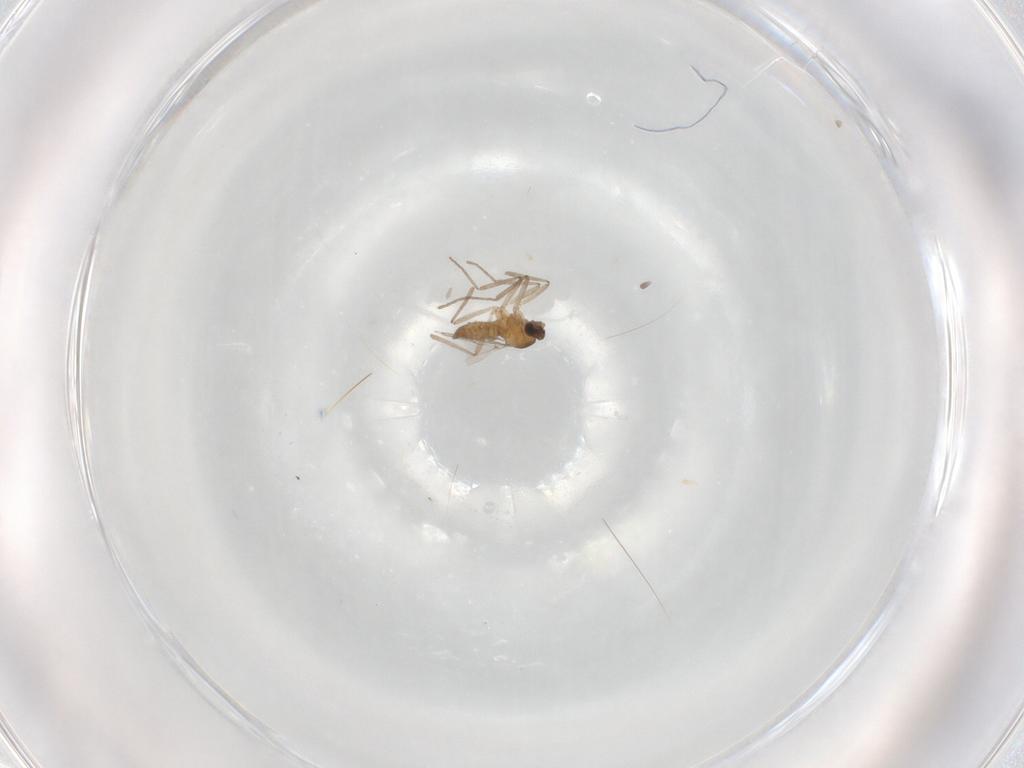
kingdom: Animalia
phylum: Arthropoda
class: Insecta
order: Diptera
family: Cecidomyiidae
